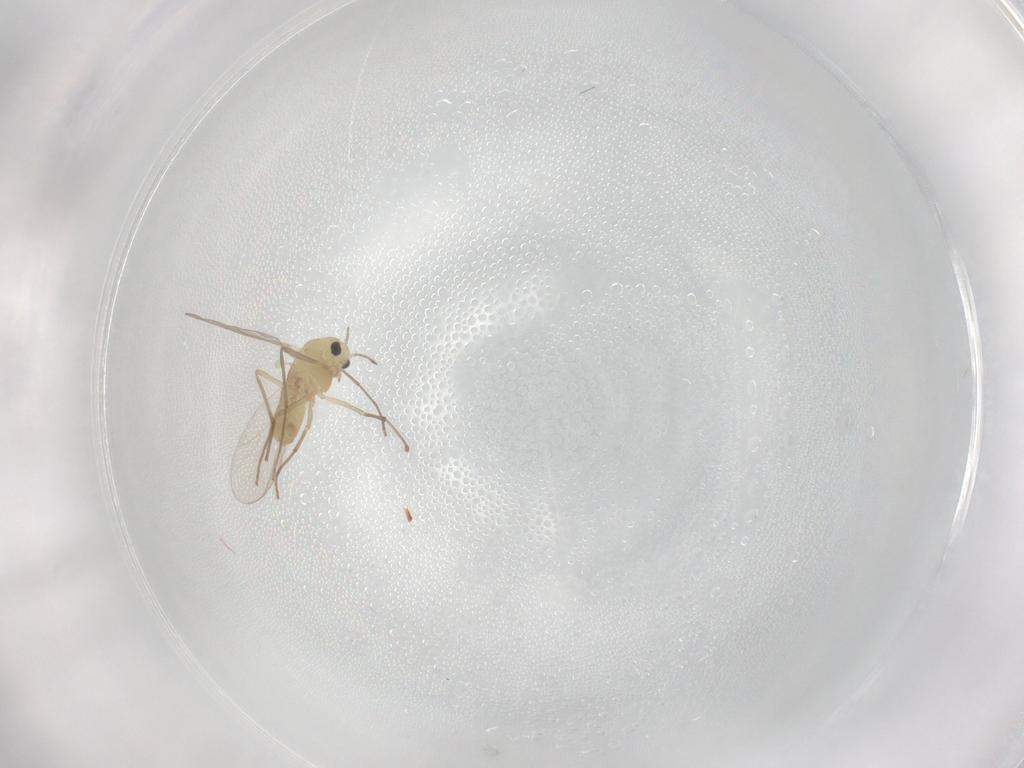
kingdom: Animalia
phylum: Arthropoda
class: Insecta
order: Diptera
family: Chironomidae
